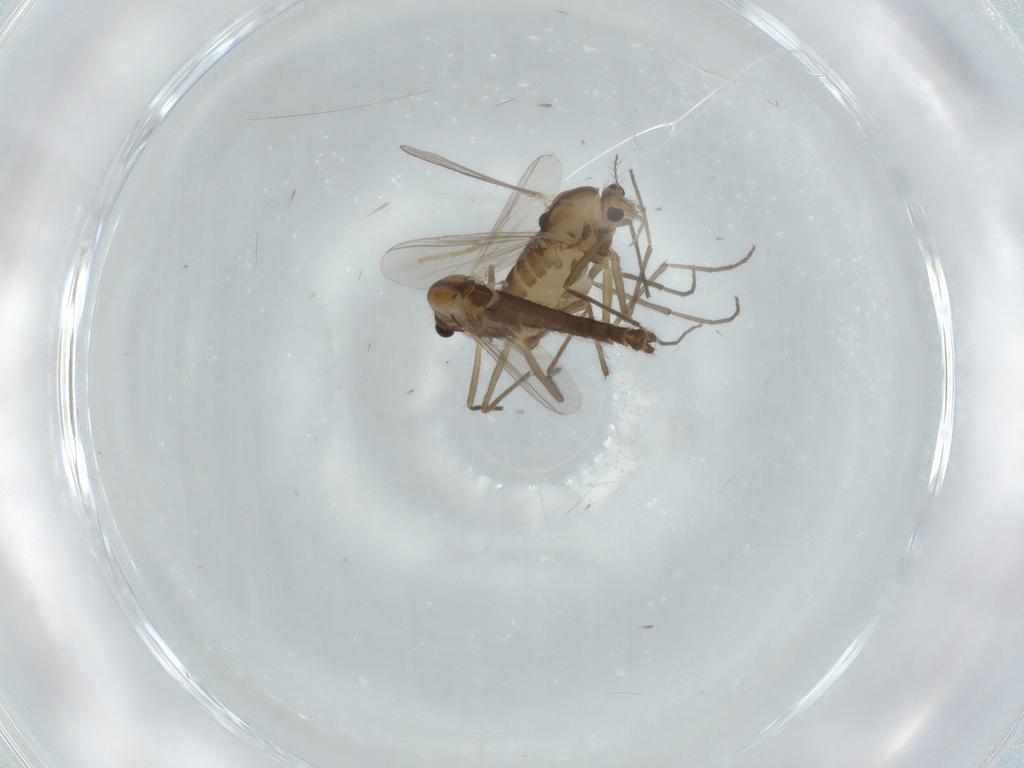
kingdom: Animalia
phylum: Arthropoda
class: Insecta
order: Diptera
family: Chironomidae
